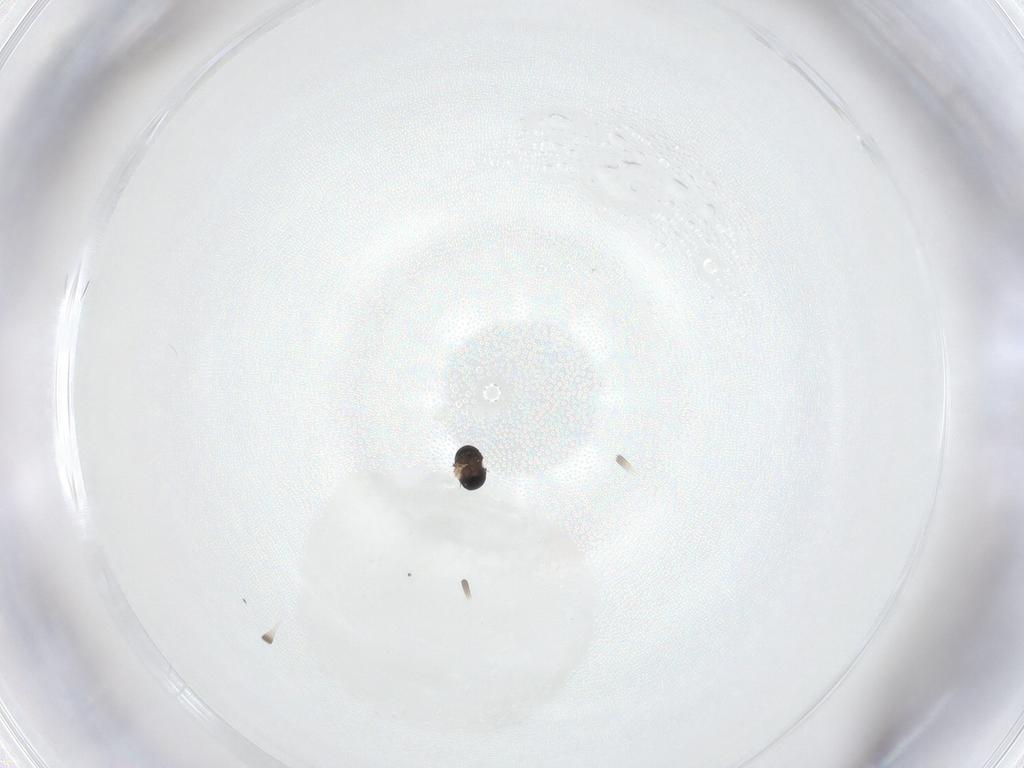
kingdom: Animalia
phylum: Arthropoda
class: Insecta
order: Diptera
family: Phoridae
